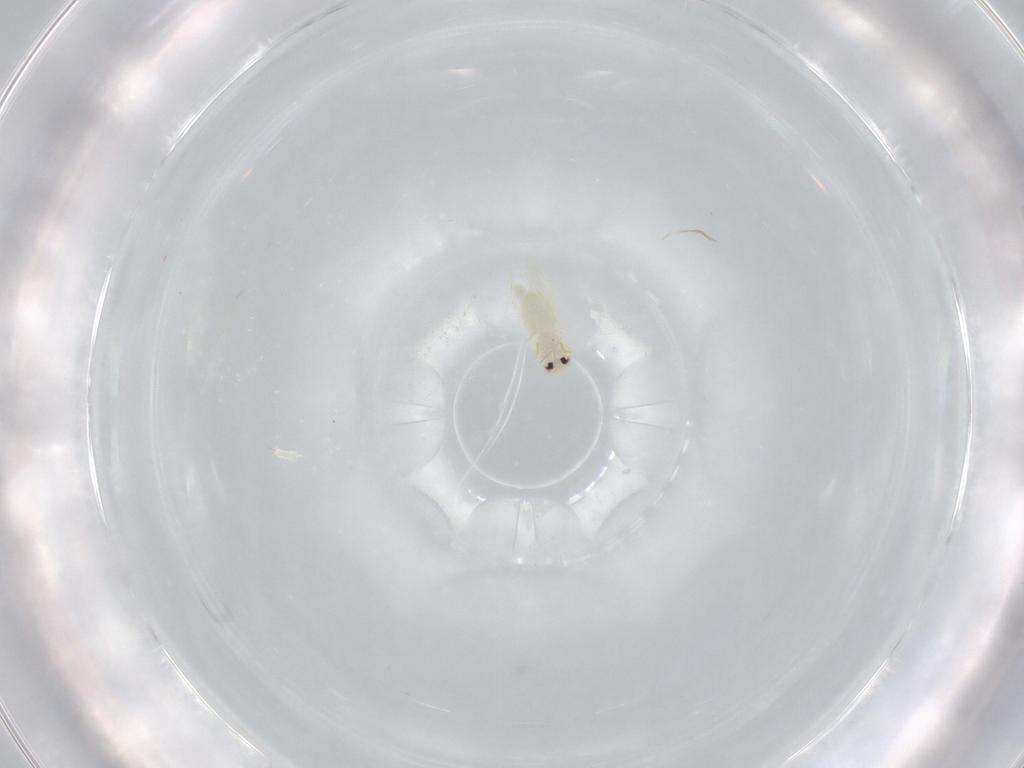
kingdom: Animalia
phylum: Arthropoda
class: Insecta
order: Hemiptera
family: Aleyrodidae
